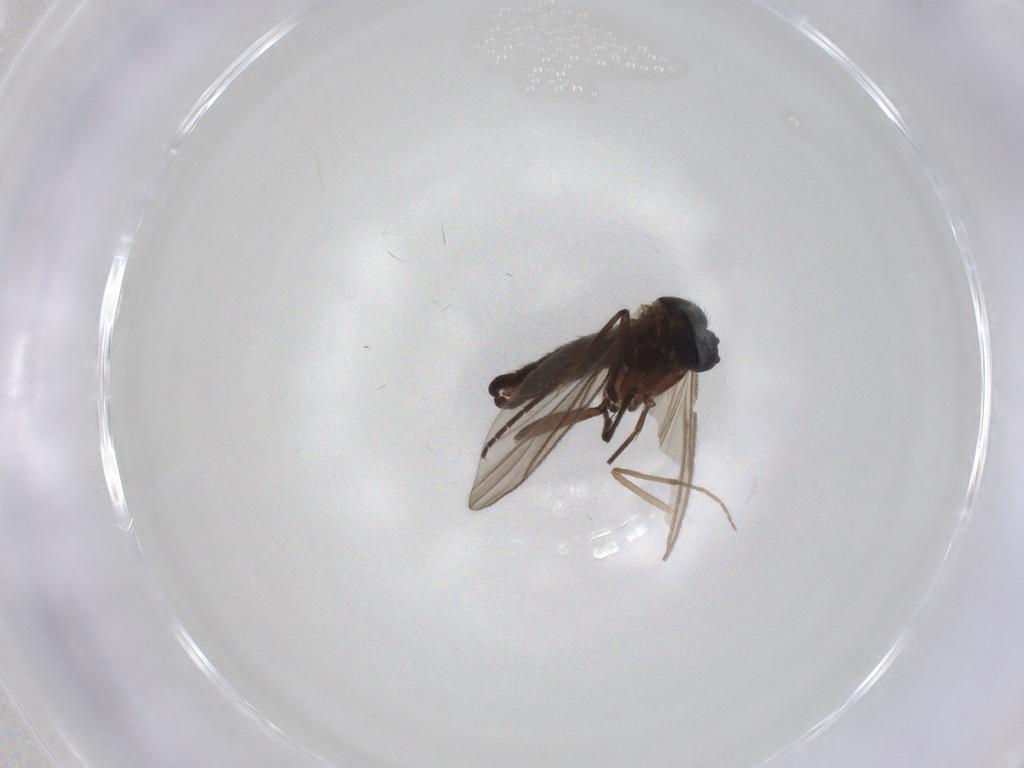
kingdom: Animalia
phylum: Arthropoda
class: Insecta
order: Diptera
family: Sciaridae
